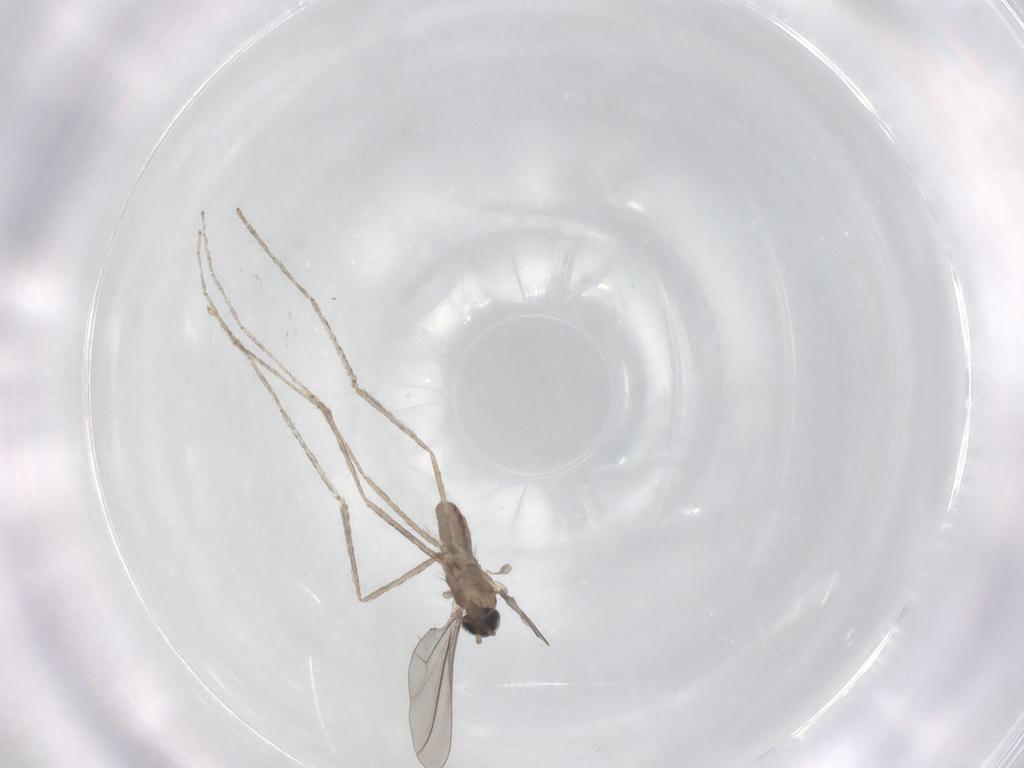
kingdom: Animalia
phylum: Arthropoda
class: Insecta
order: Diptera
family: Cecidomyiidae
